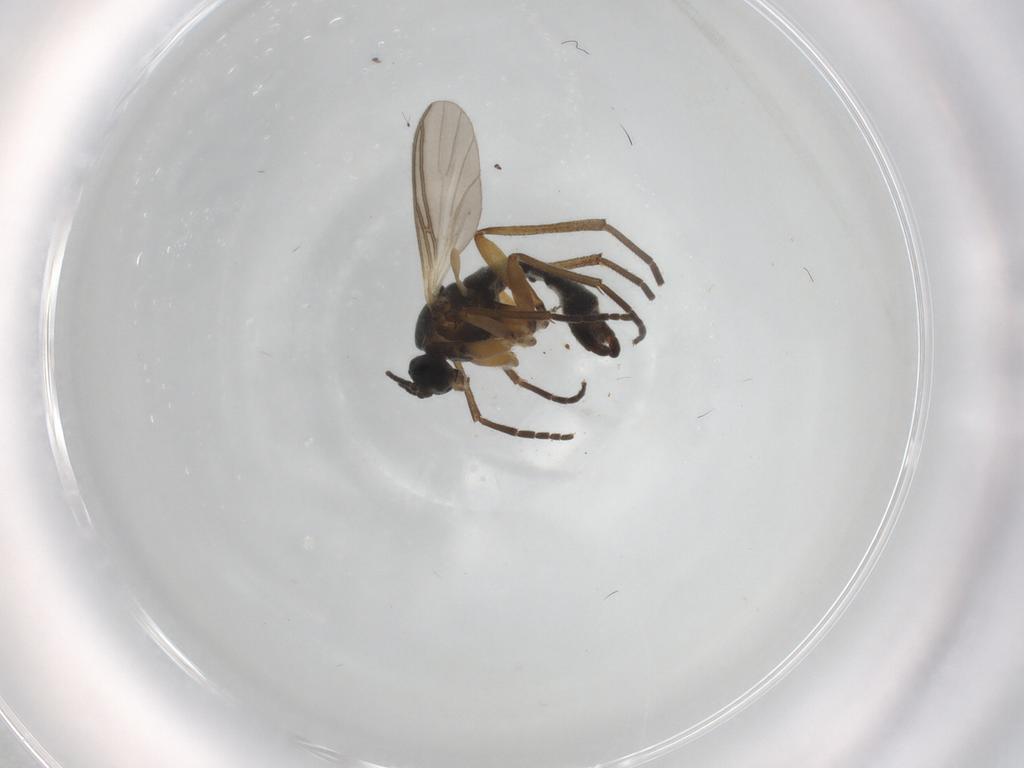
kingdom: Animalia
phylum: Arthropoda
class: Insecta
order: Diptera
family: Sciaridae
